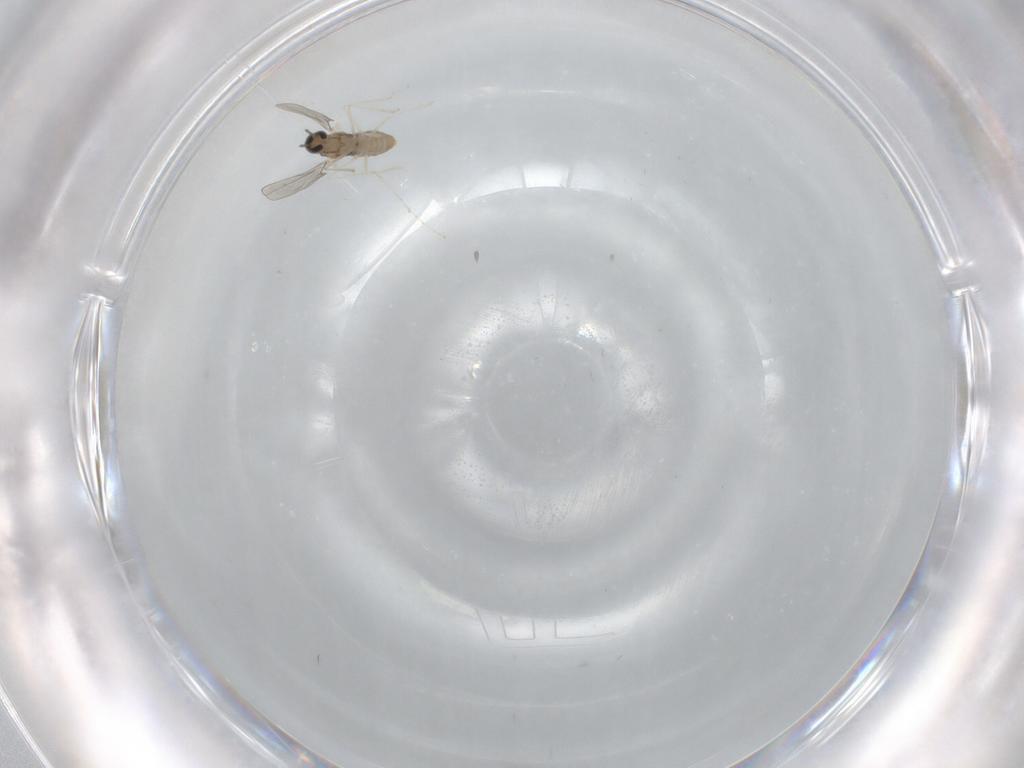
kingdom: Animalia
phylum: Arthropoda
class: Insecta
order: Diptera
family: Cecidomyiidae
